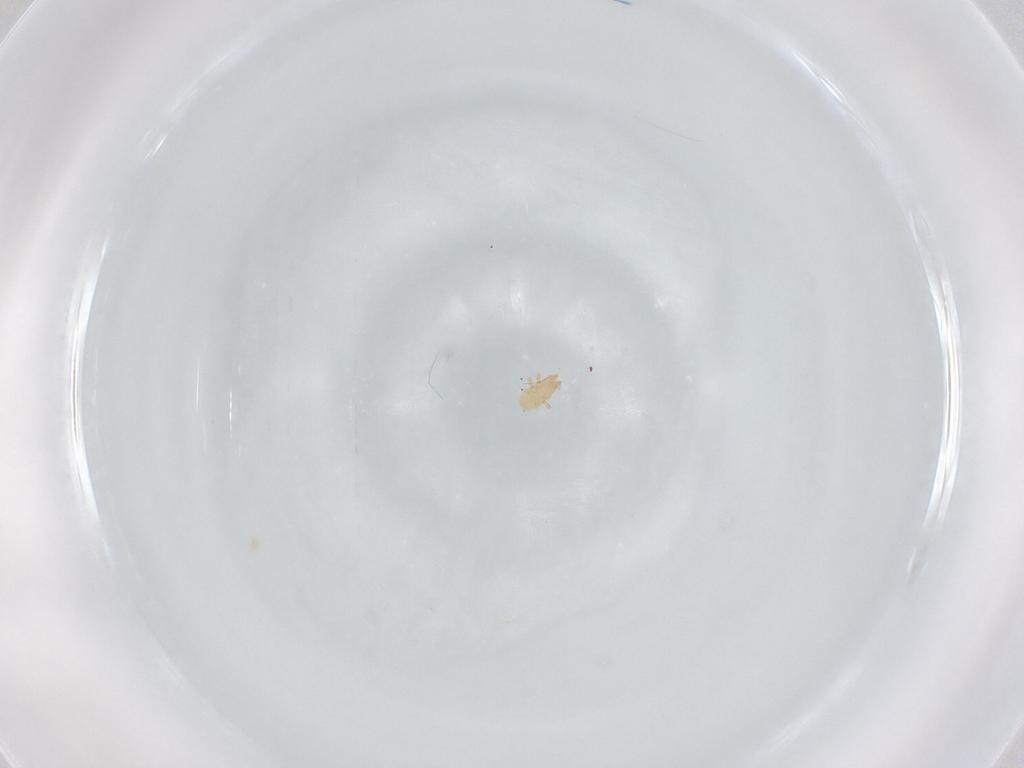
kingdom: Animalia
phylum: Arthropoda
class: Arachnida
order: Mesostigmata
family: Macrochelidae
